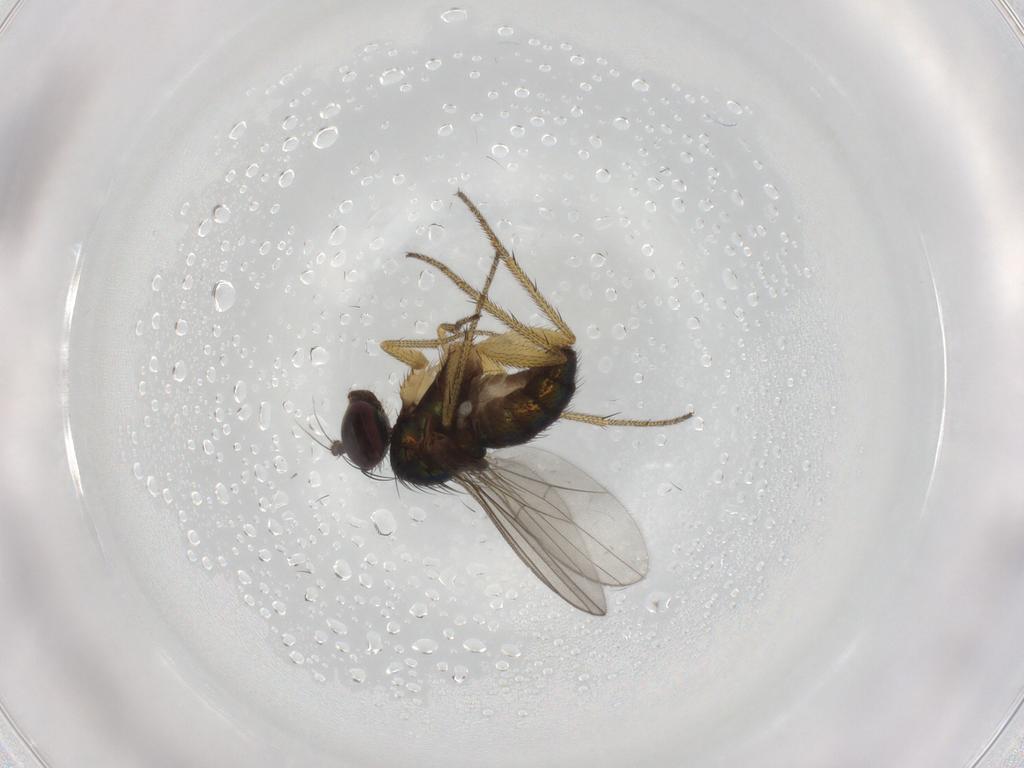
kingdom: Animalia
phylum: Arthropoda
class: Insecta
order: Diptera
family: Dolichopodidae
